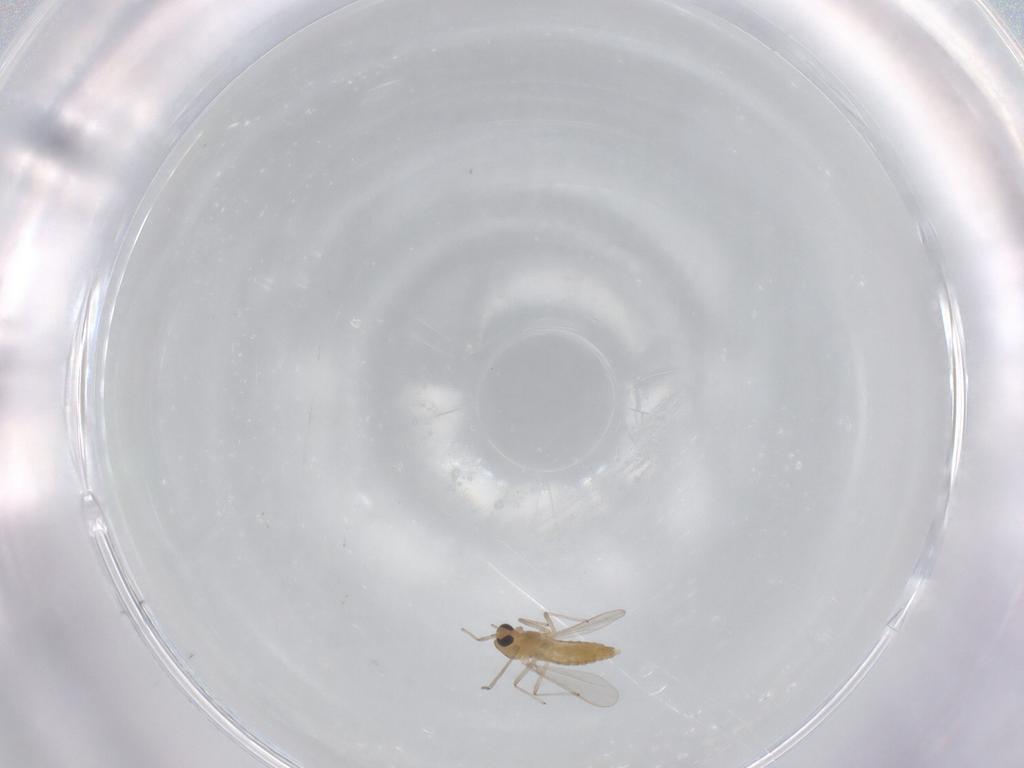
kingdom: Animalia
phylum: Arthropoda
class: Insecta
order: Diptera
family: Chironomidae
